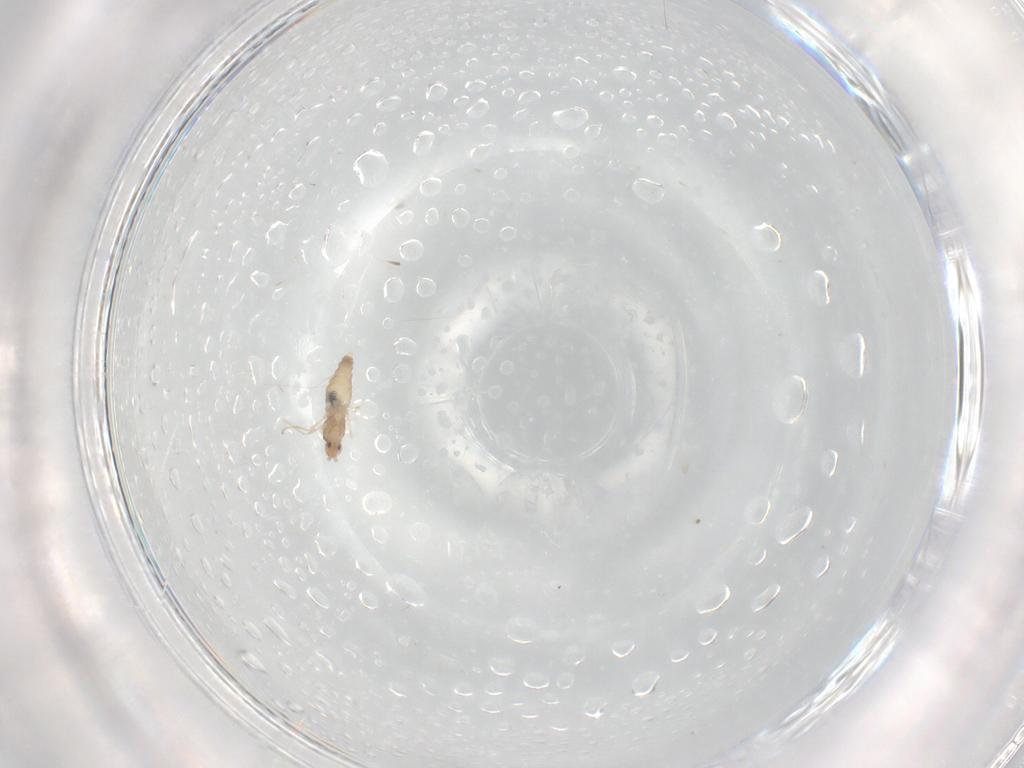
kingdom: Animalia
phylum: Arthropoda
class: Insecta
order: Diptera
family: Cecidomyiidae
